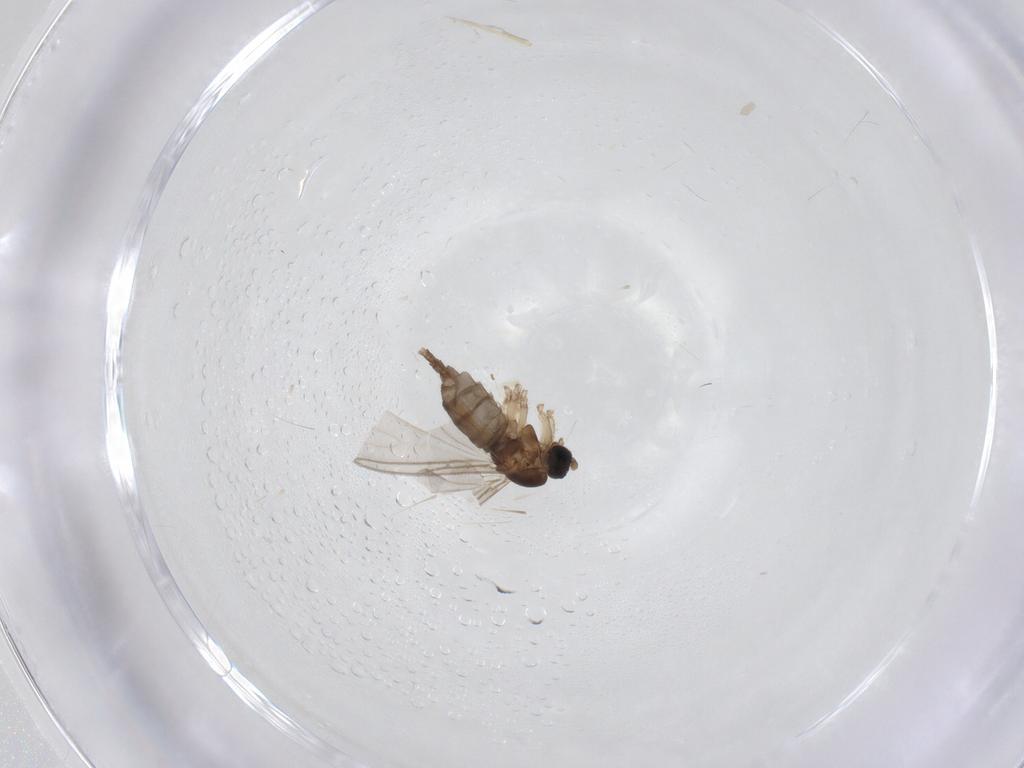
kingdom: Animalia
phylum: Arthropoda
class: Insecta
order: Diptera
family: Sciaridae
